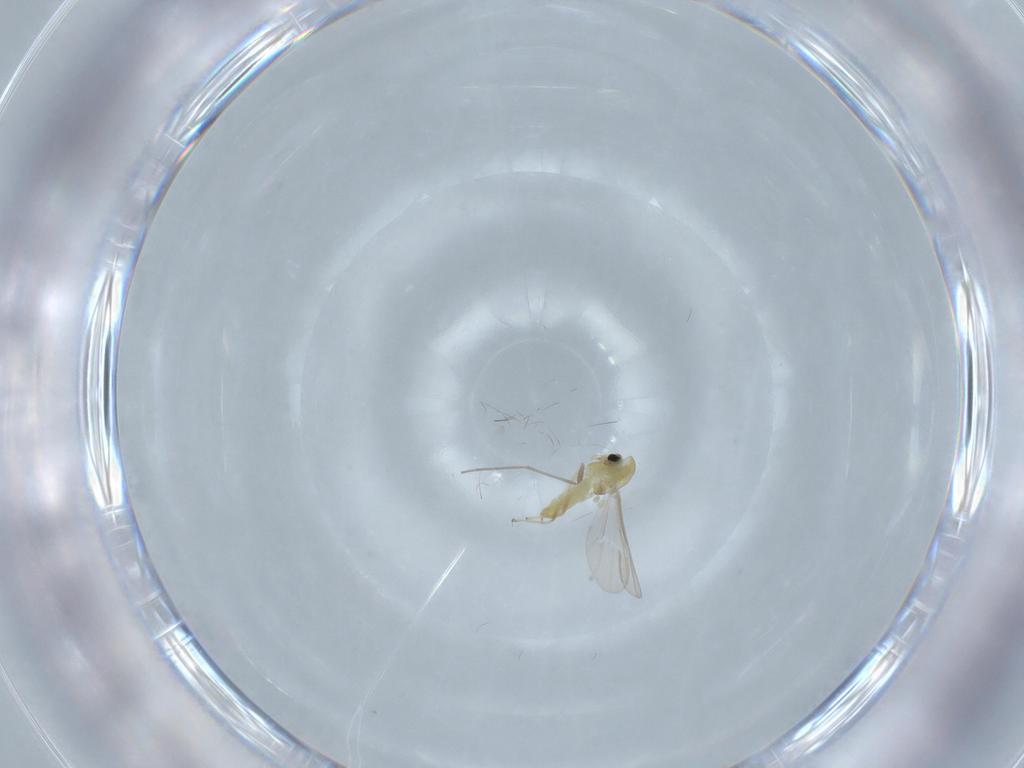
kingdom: Animalia
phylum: Arthropoda
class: Insecta
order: Diptera
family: Chironomidae
